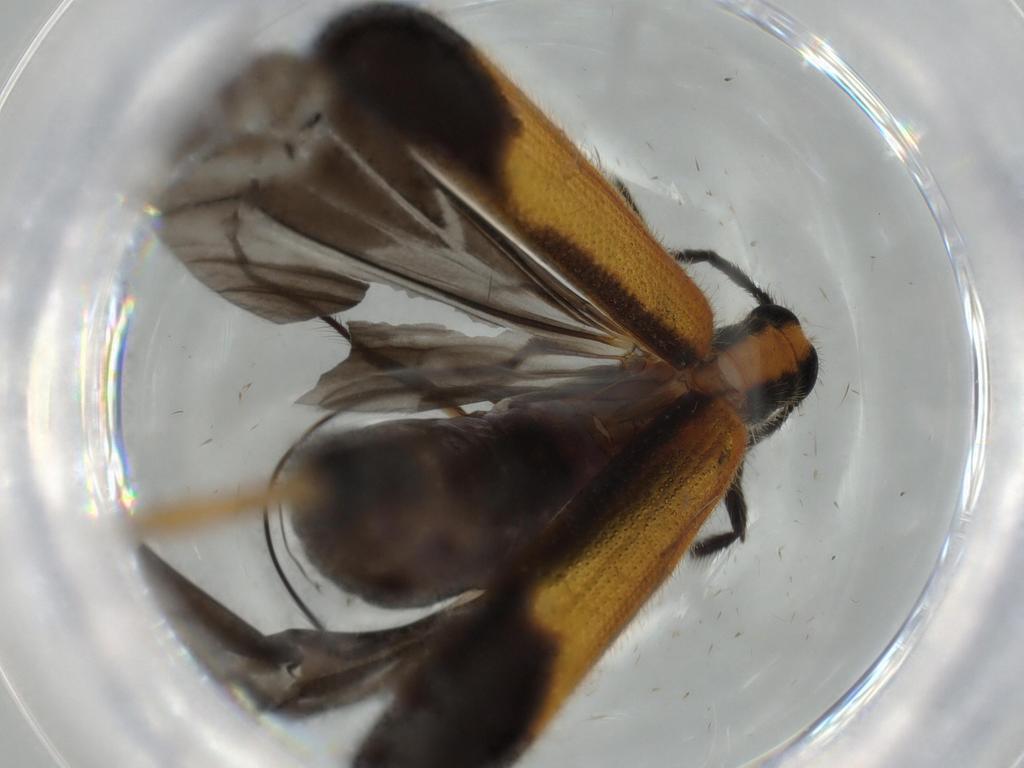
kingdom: Animalia
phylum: Arthropoda
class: Insecta
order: Coleoptera
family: Cleridae
